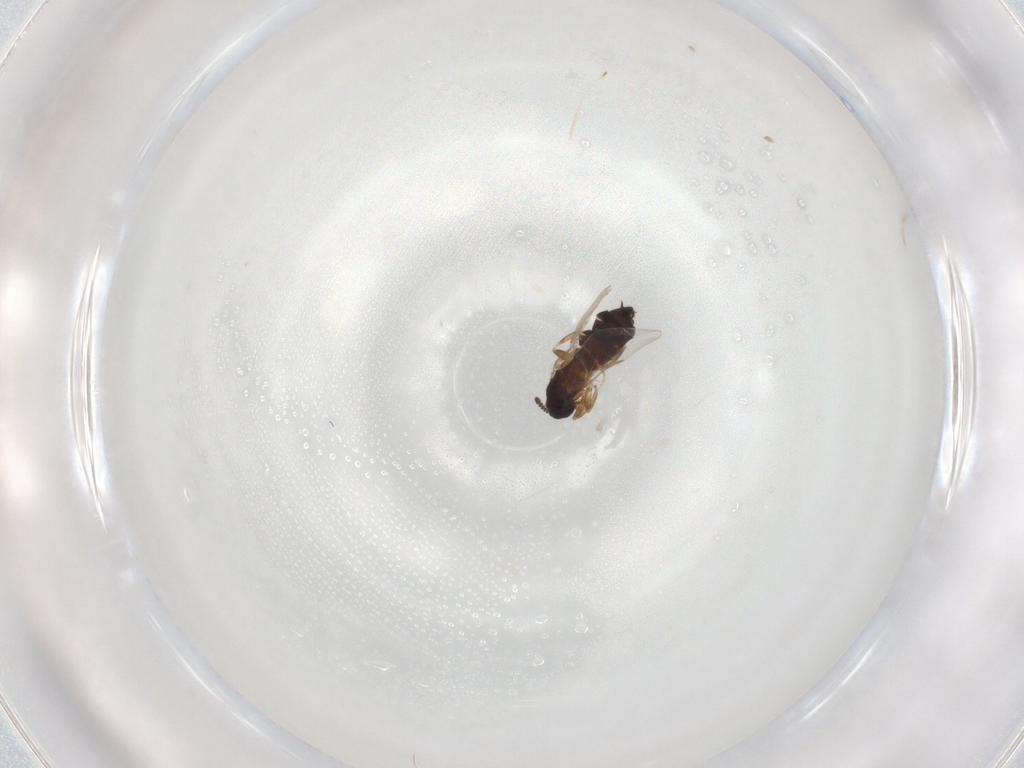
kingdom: Animalia
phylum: Arthropoda
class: Insecta
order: Diptera
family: Scatopsidae
